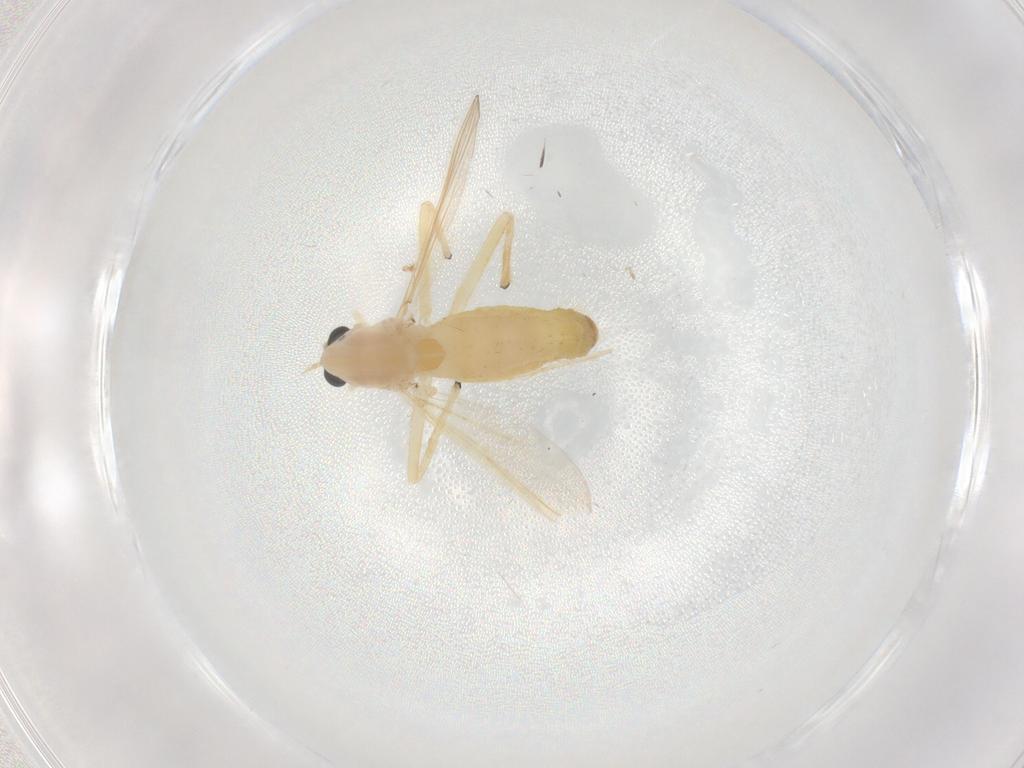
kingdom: Animalia
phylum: Arthropoda
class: Insecta
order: Diptera
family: Chironomidae
